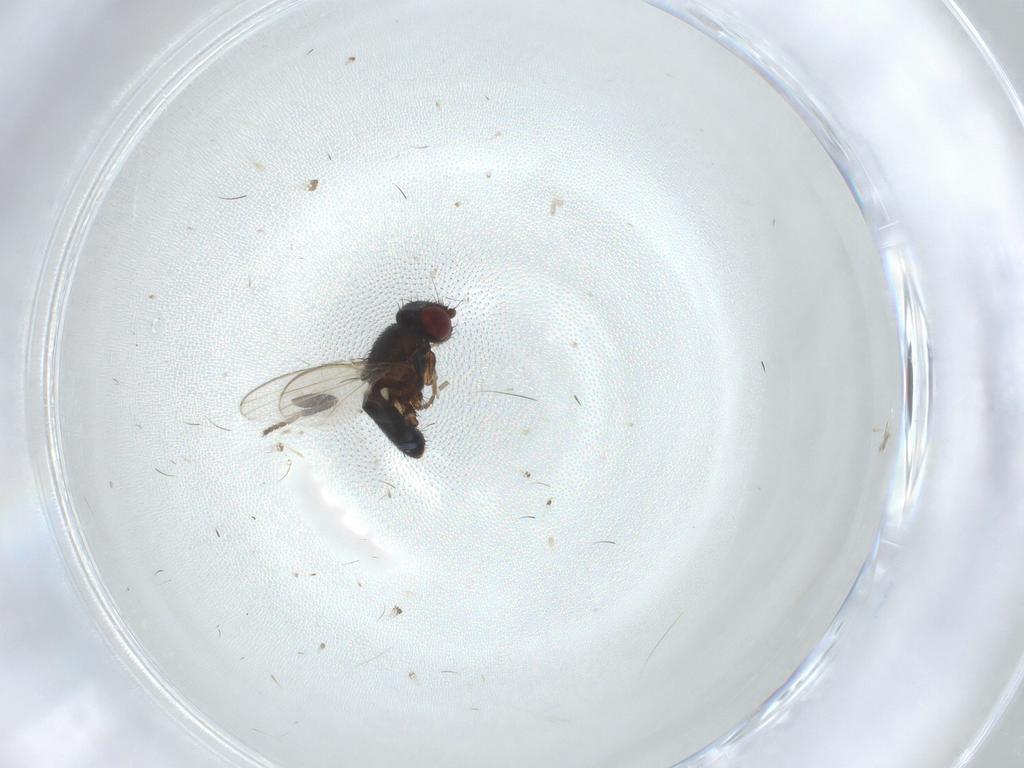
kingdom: Animalia
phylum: Arthropoda
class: Insecta
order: Diptera
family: Milichiidae
